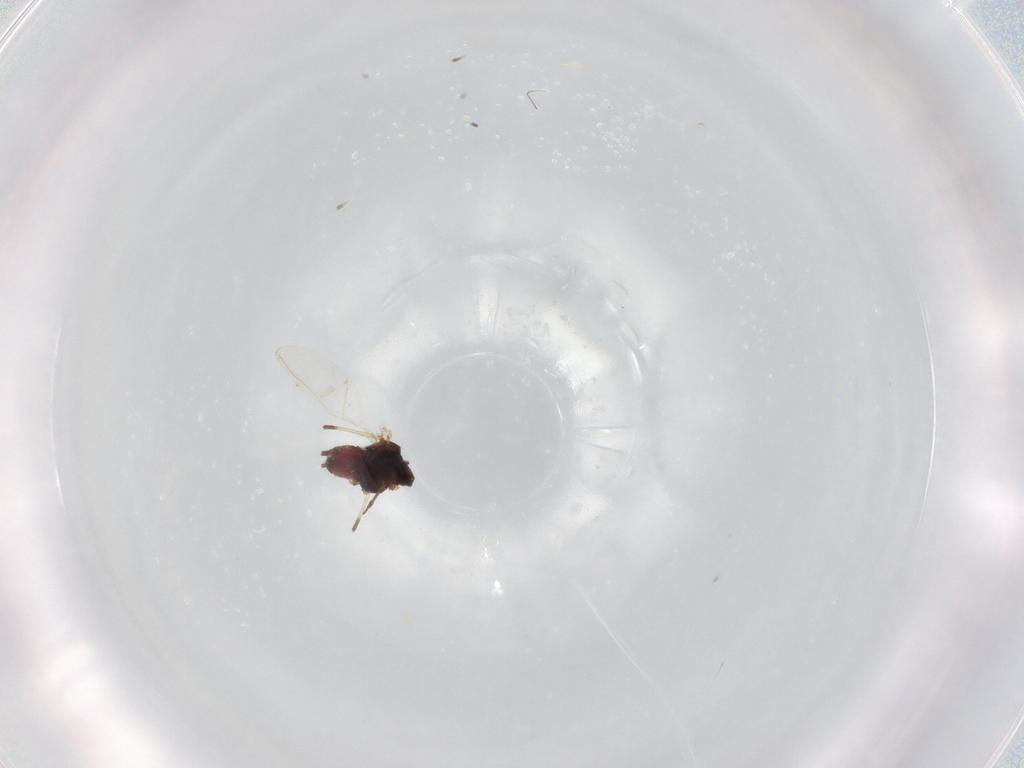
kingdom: Animalia
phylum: Arthropoda
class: Insecta
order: Hemiptera
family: Aphididae
